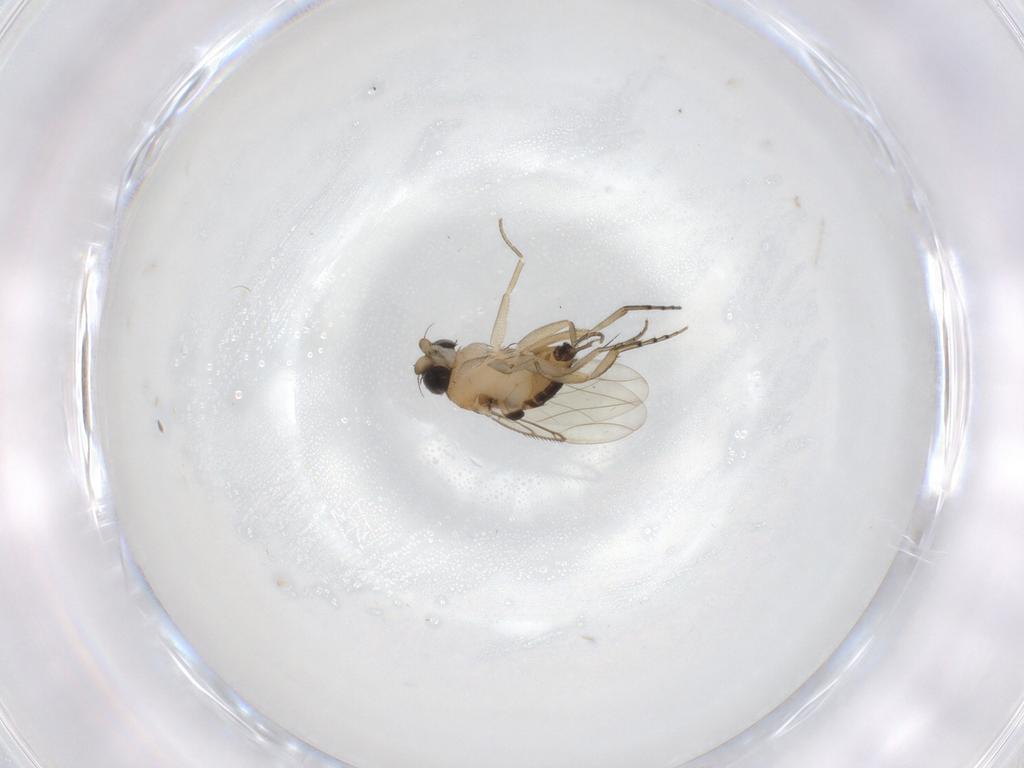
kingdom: Animalia
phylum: Arthropoda
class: Insecta
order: Diptera
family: Phoridae
